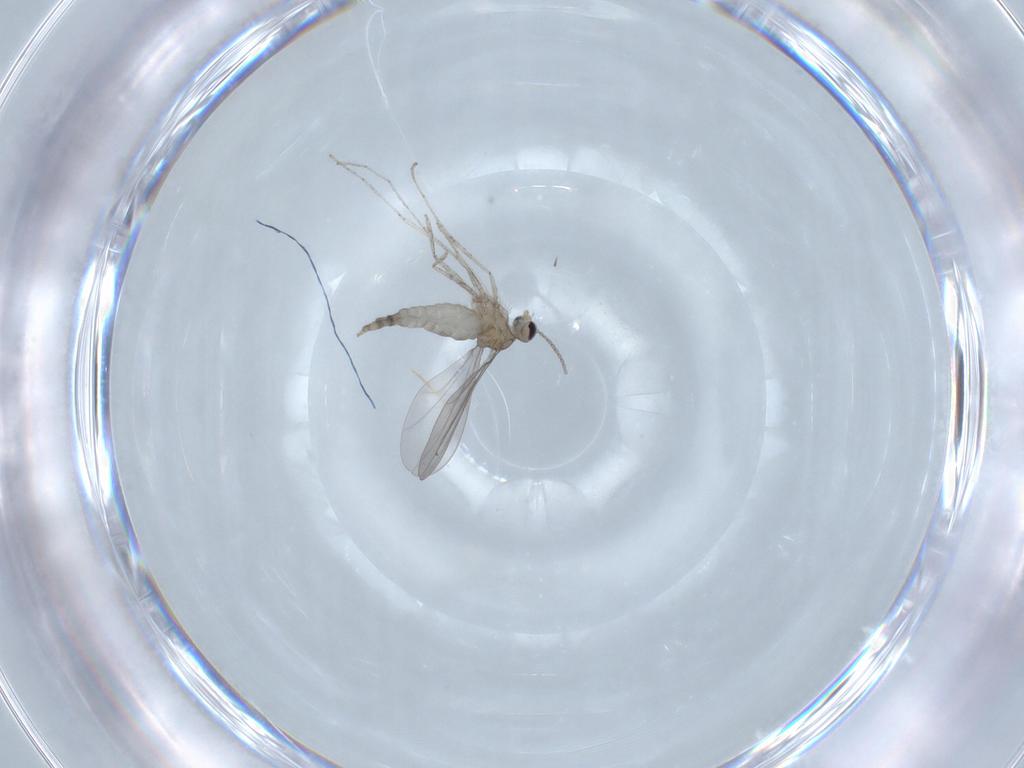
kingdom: Animalia
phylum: Arthropoda
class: Insecta
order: Diptera
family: Cecidomyiidae
